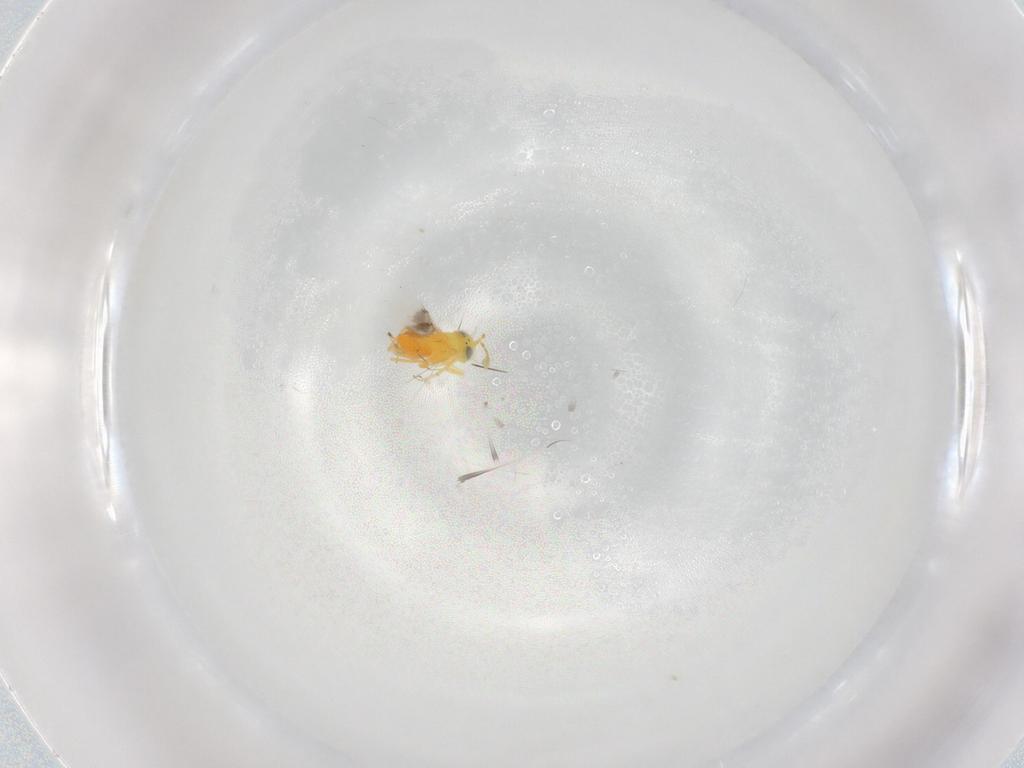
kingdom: Animalia
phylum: Arthropoda
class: Insecta
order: Hymenoptera
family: Encyrtidae
